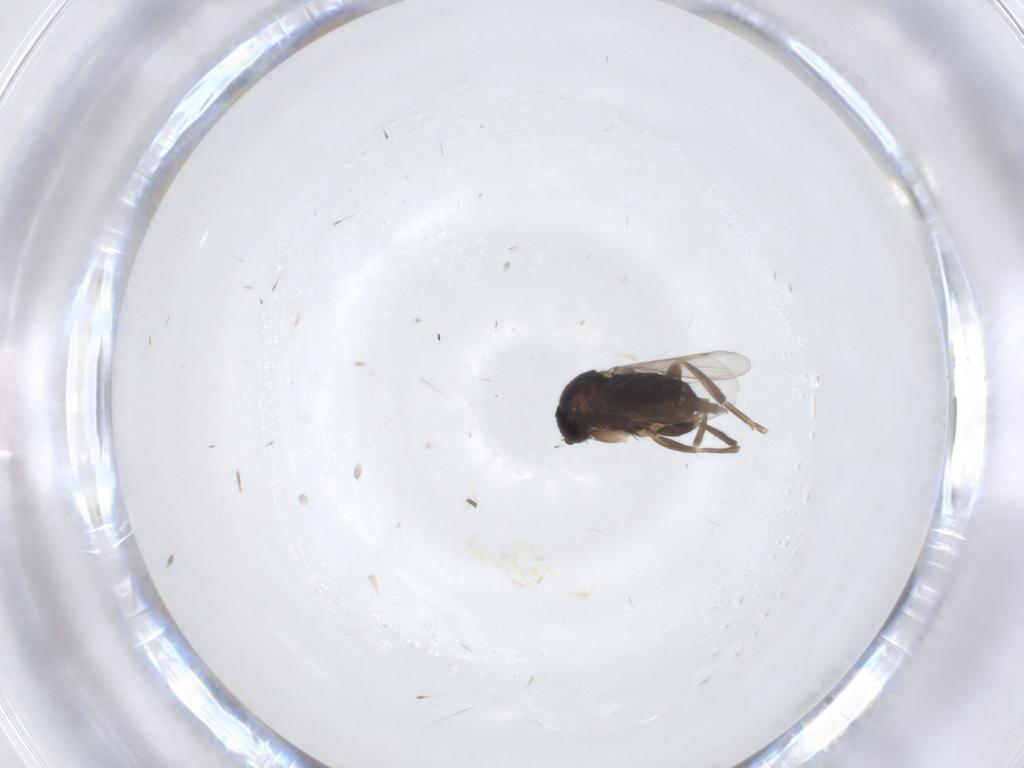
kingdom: Animalia
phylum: Arthropoda
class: Insecta
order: Diptera
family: Phoridae
